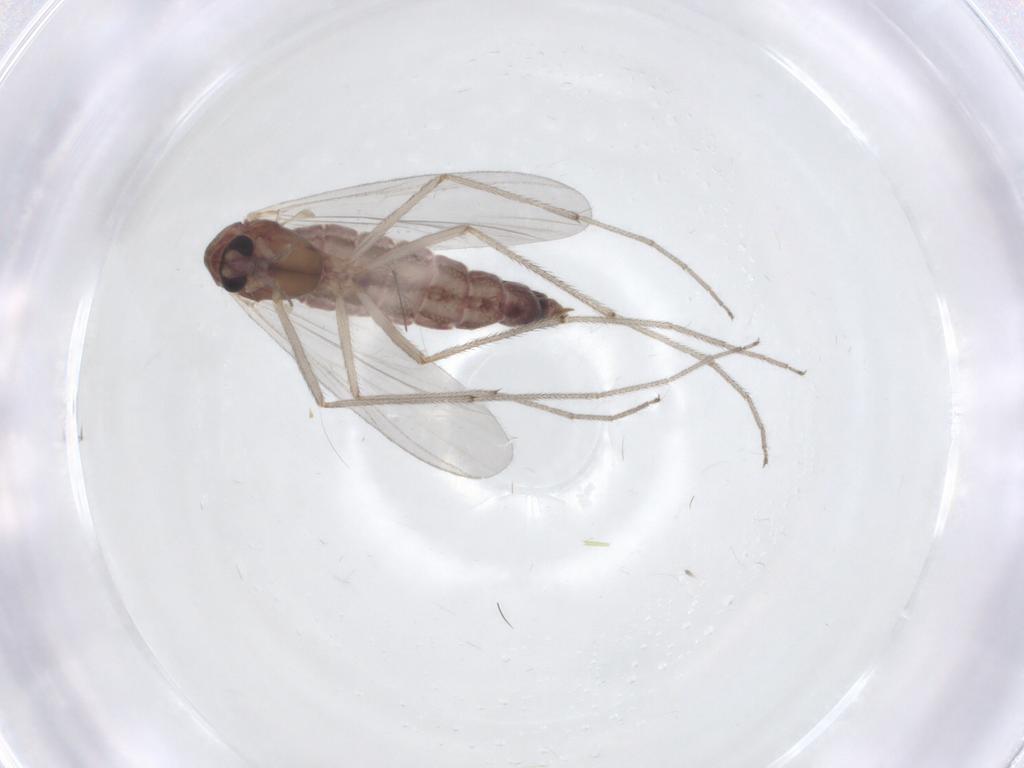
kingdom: Animalia
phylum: Arthropoda
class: Insecta
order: Diptera
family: Chironomidae
